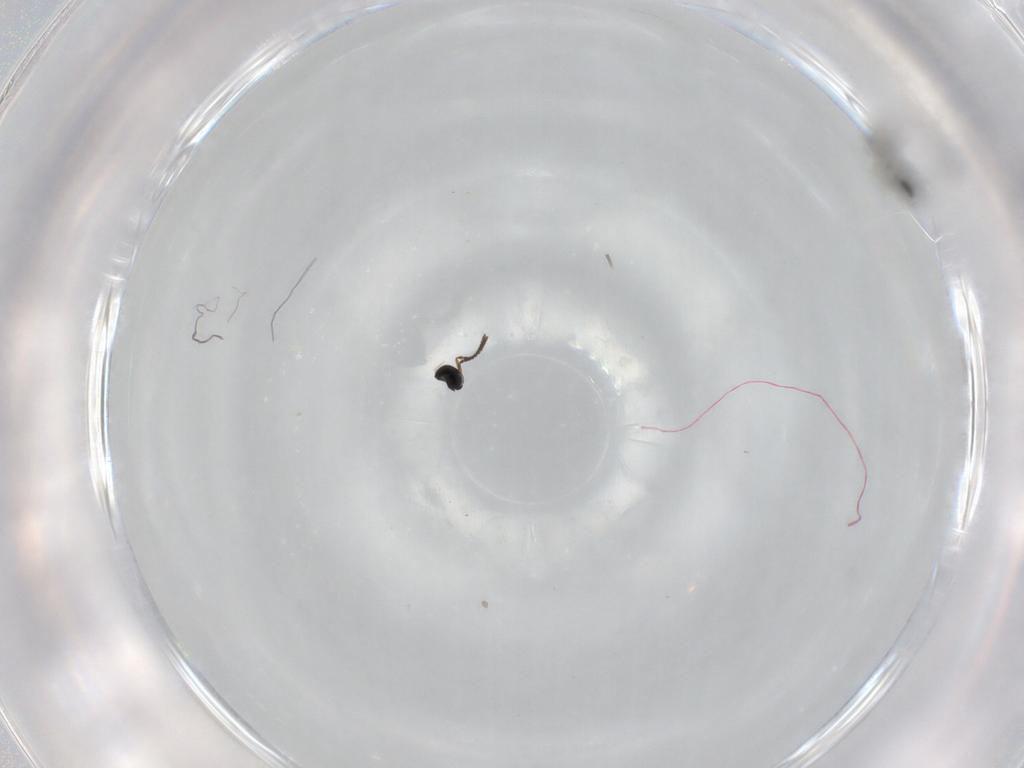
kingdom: Animalia
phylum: Arthropoda
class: Insecta
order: Hymenoptera
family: Scelionidae
